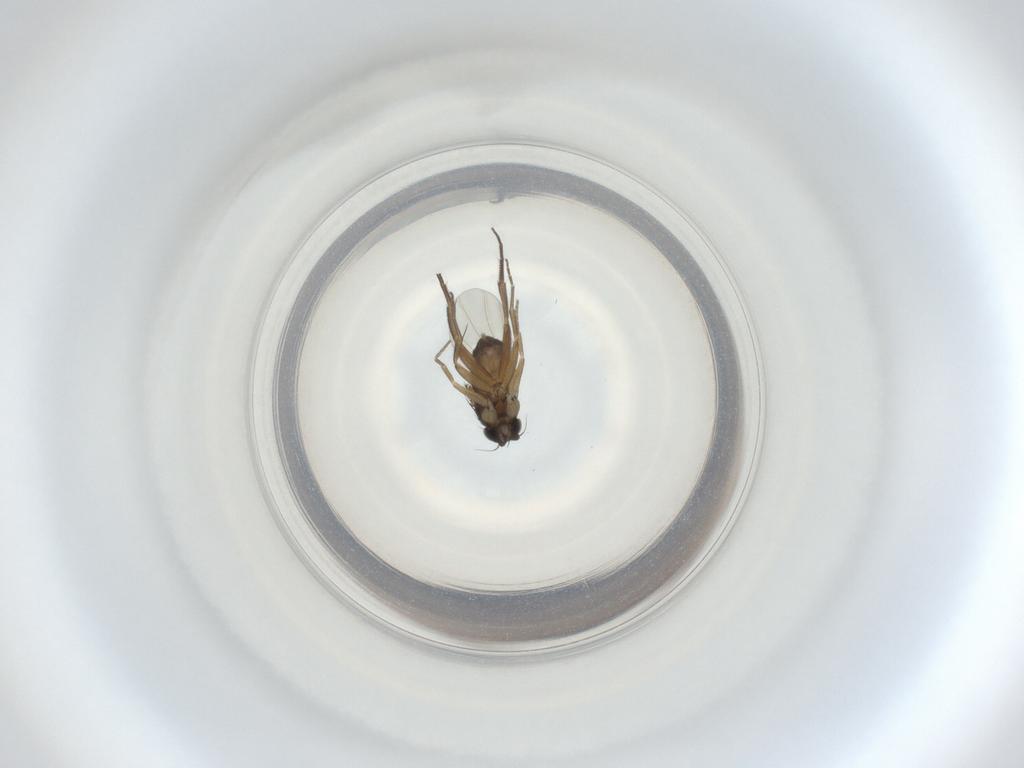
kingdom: Animalia
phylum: Arthropoda
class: Insecta
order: Diptera
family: Phoridae
